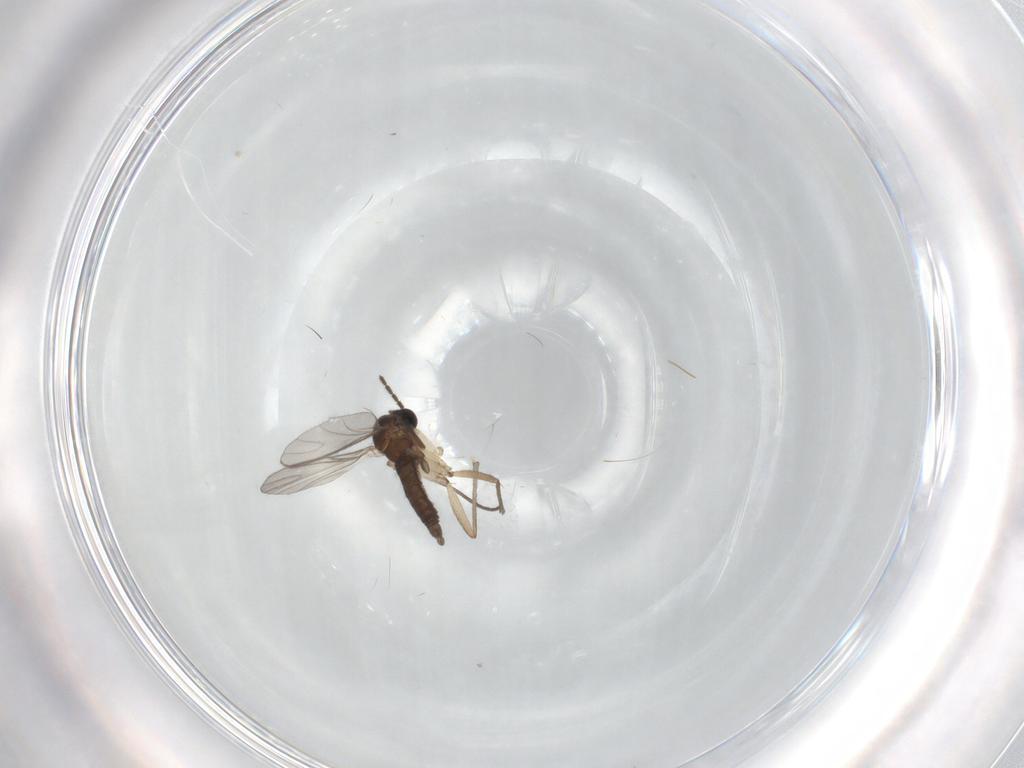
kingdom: Animalia
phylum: Arthropoda
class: Insecta
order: Diptera
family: Sciaridae
